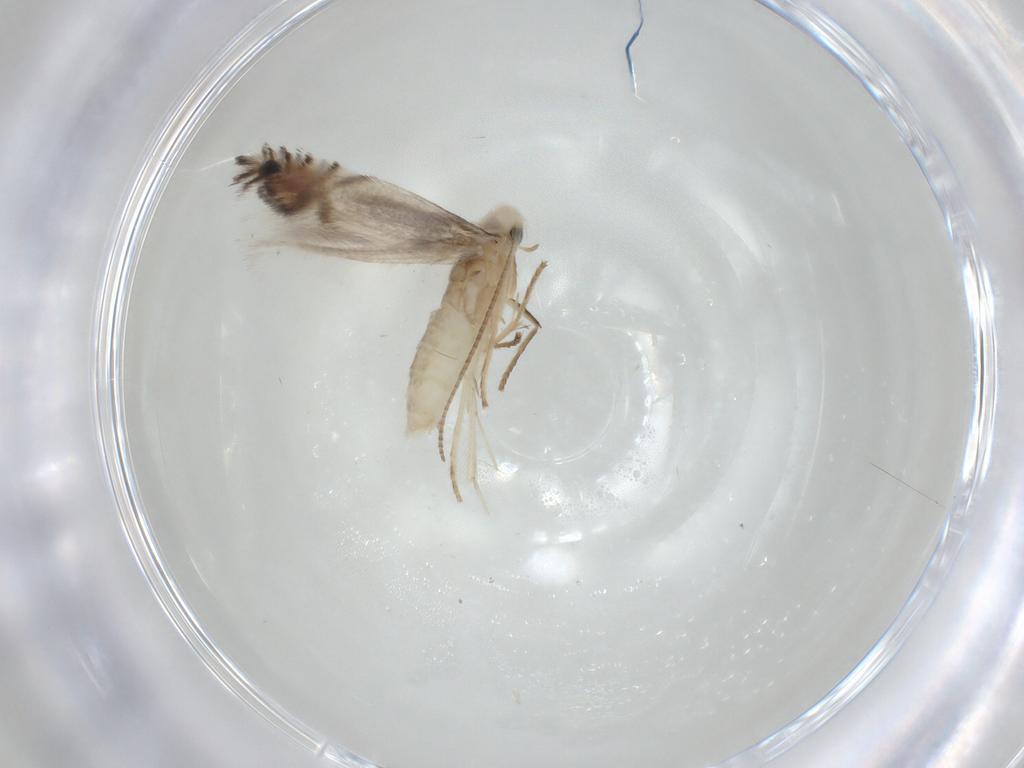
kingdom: Animalia
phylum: Arthropoda
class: Insecta
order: Lepidoptera
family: Gracillariidae
